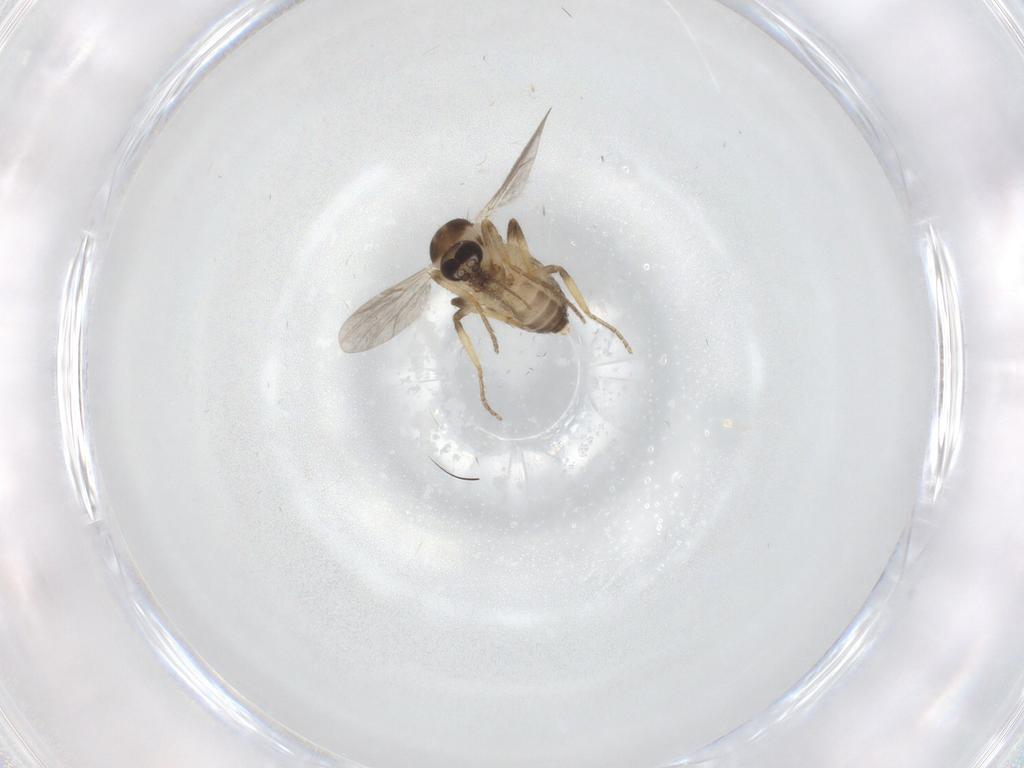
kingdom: Animalia
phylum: Arthropoda
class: Insecta
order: Diptera
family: Ceratopogonidae
